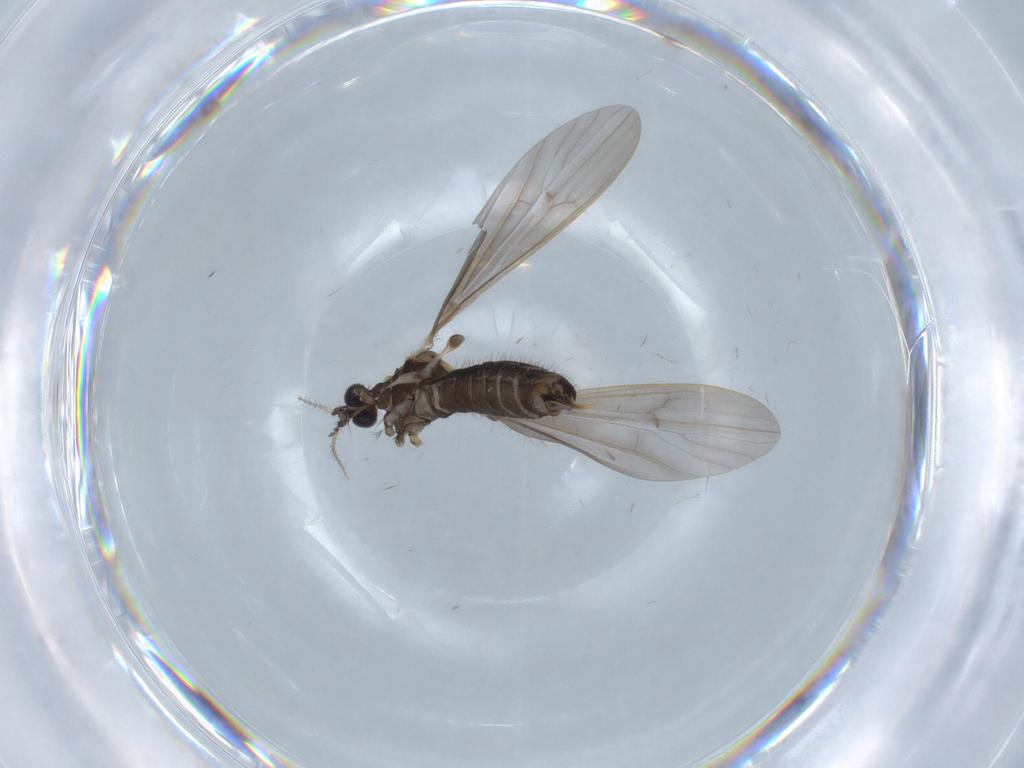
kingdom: Animalia
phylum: Arthropoda
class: Insecta
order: Diptera
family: Limoniidae
